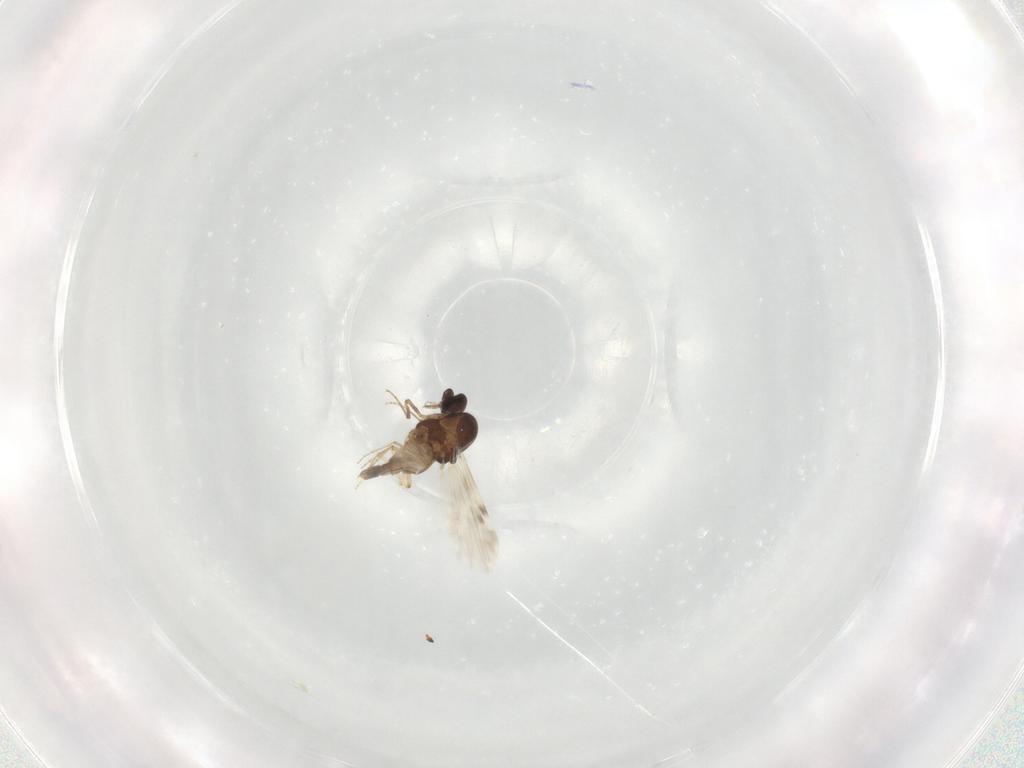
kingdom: Animalia
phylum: Arthropoda
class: Insecta
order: Diptera
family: Ceratopogonidae
